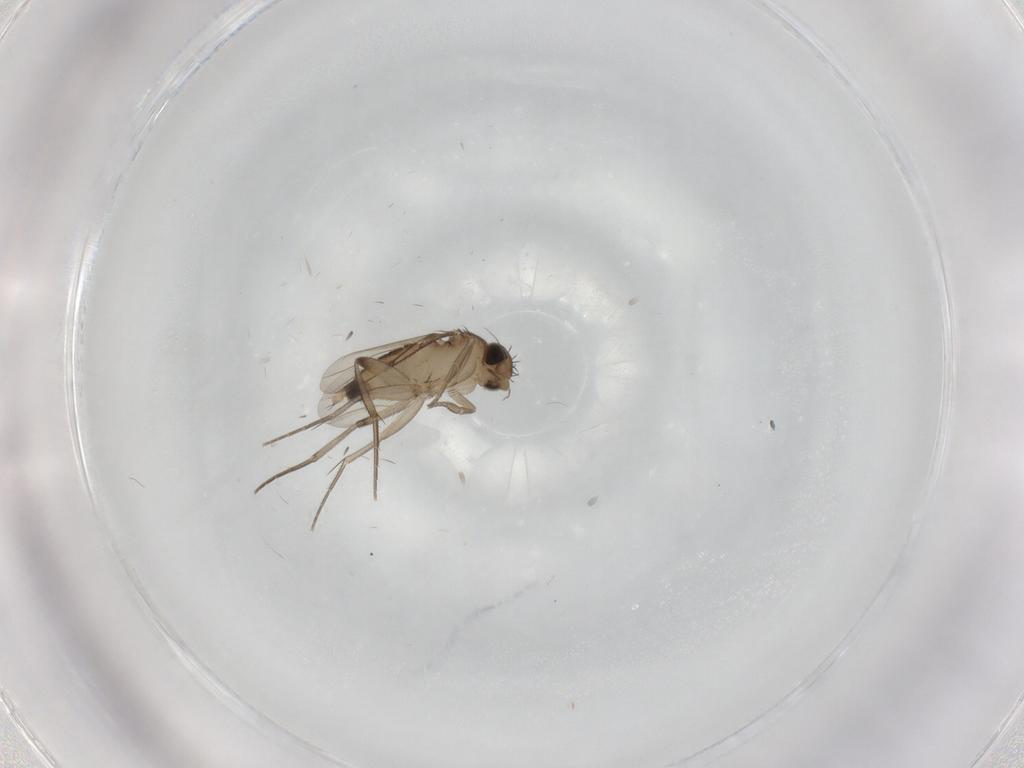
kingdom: Animalia
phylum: Arthropoda
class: Insecta
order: Diptera
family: Phoridae
